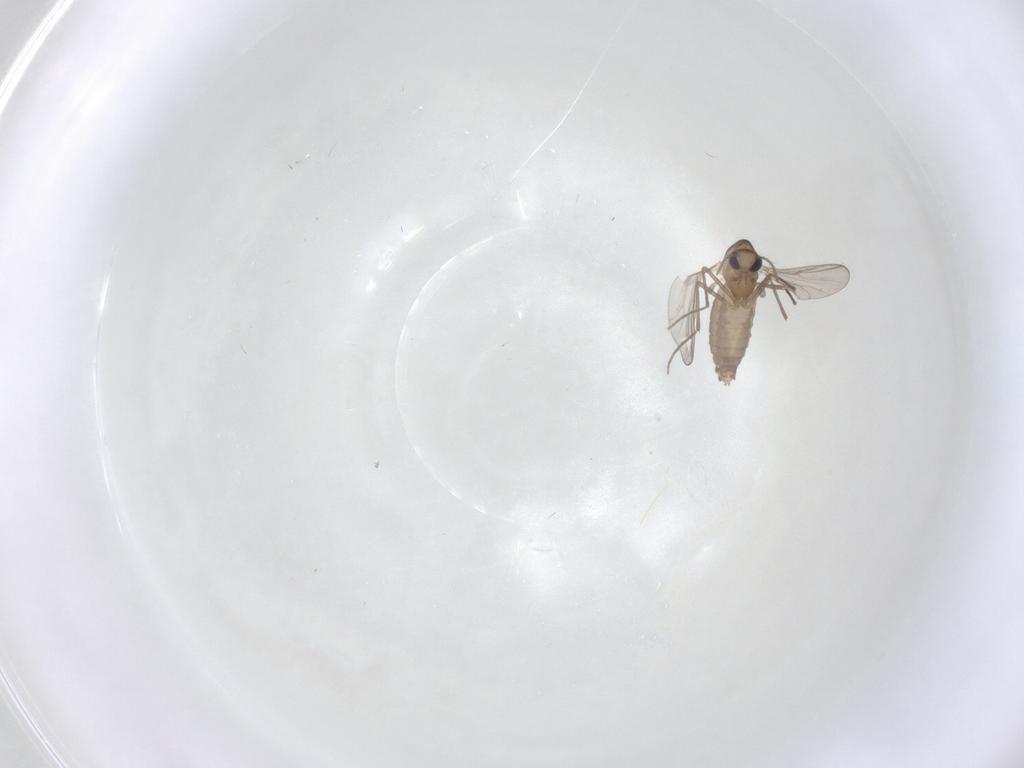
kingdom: Animalia
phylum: Arthropoda
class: Insecta
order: Diptera
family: Chironomidae
